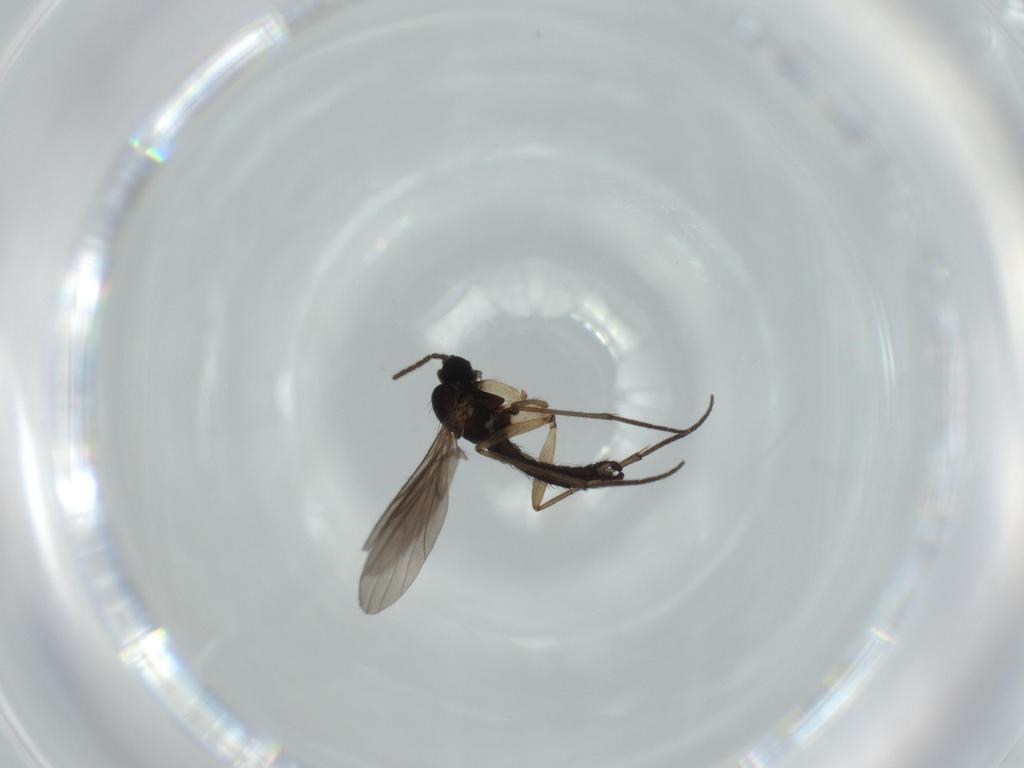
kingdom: Animalia
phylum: Arthropoda
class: Insecta
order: Diptera
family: Sciaridae
